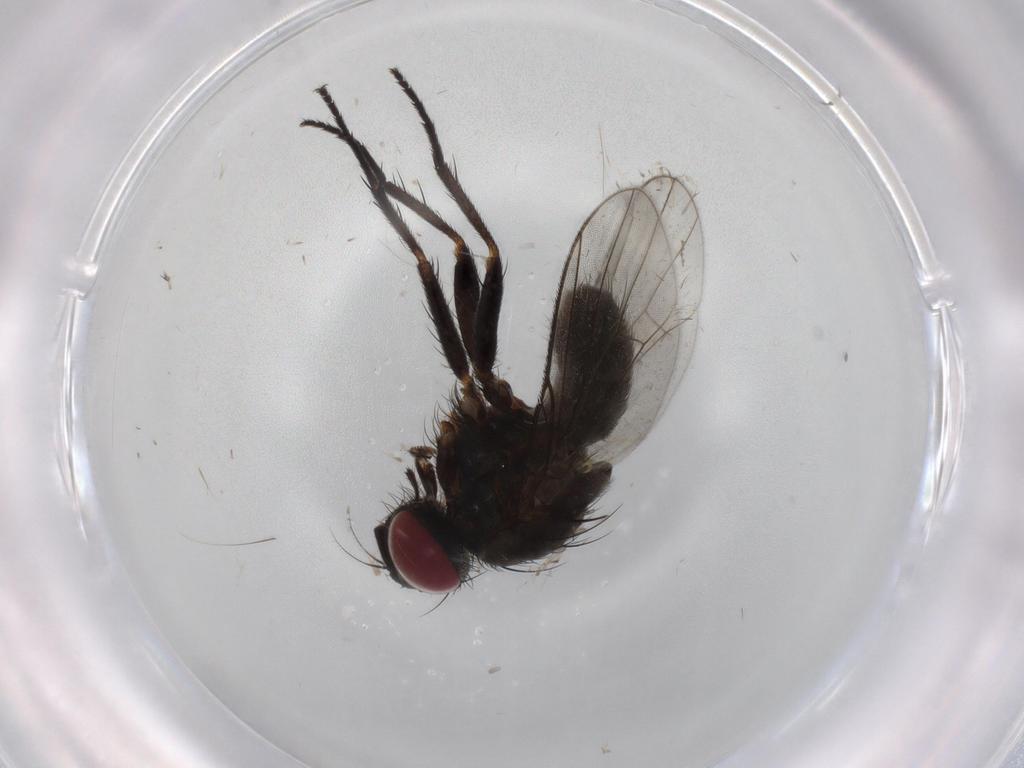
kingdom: Animalia
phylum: Arthropoda
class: Insecta
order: Diptera
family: Muscidae
